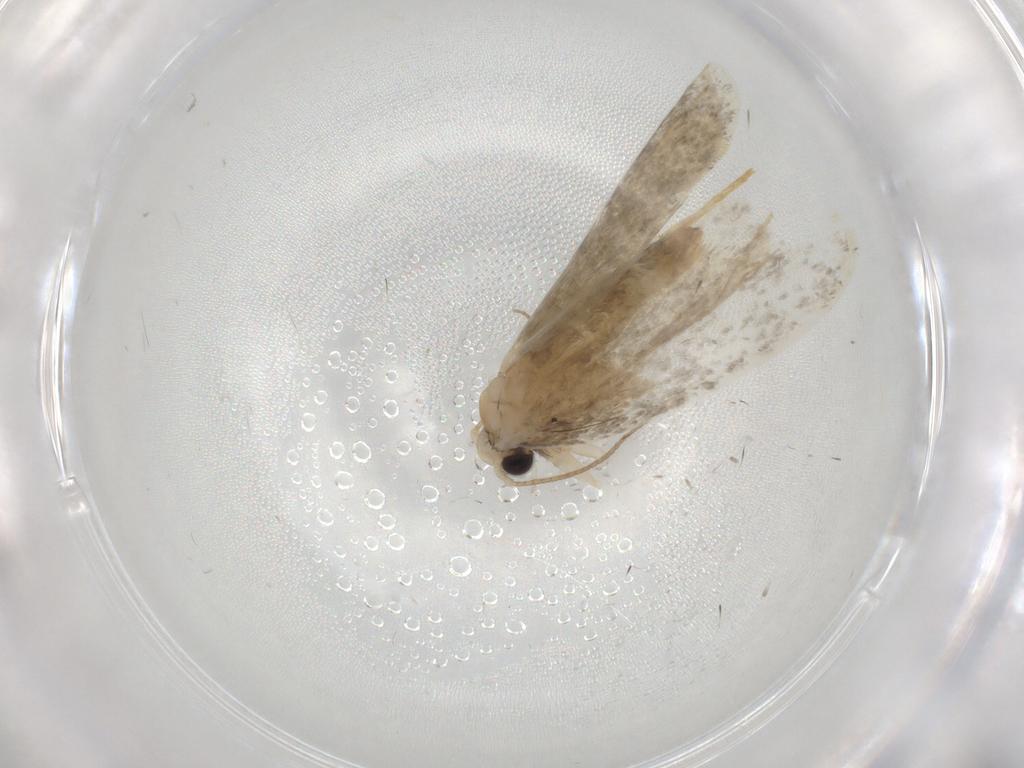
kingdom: Animalia
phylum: Arthropoda
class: Insecta
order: Lepidoptera
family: Psychidae
